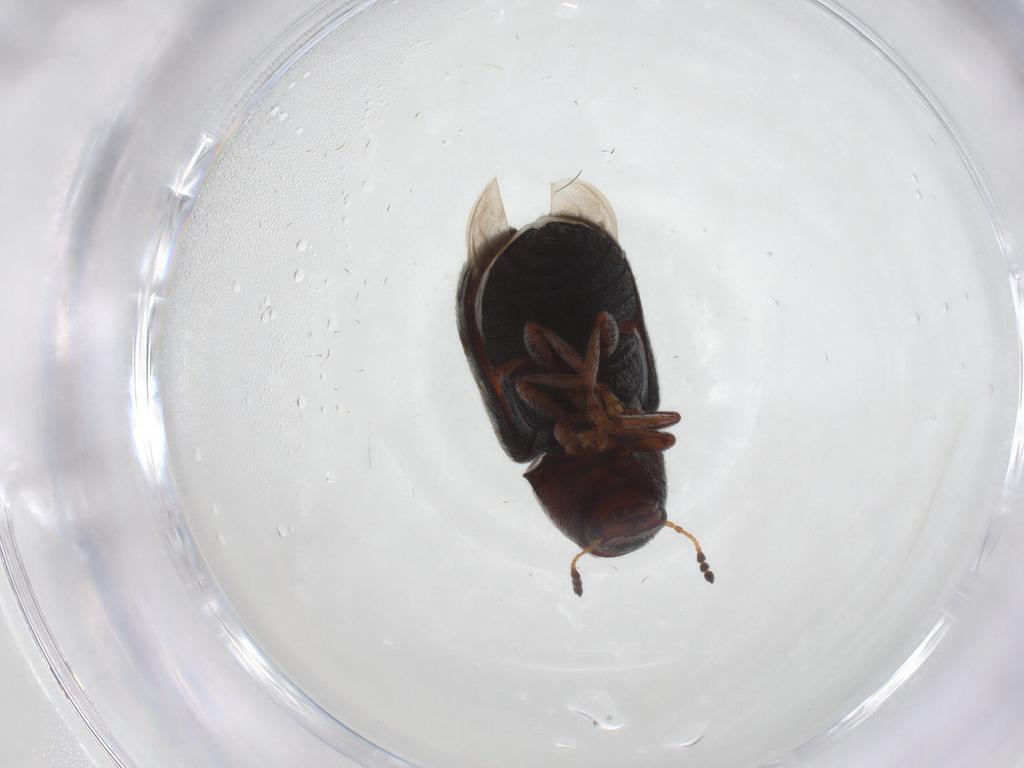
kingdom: Animalia
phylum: Arthropoda
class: Insecta
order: Coleoptera
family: Anthribidae
